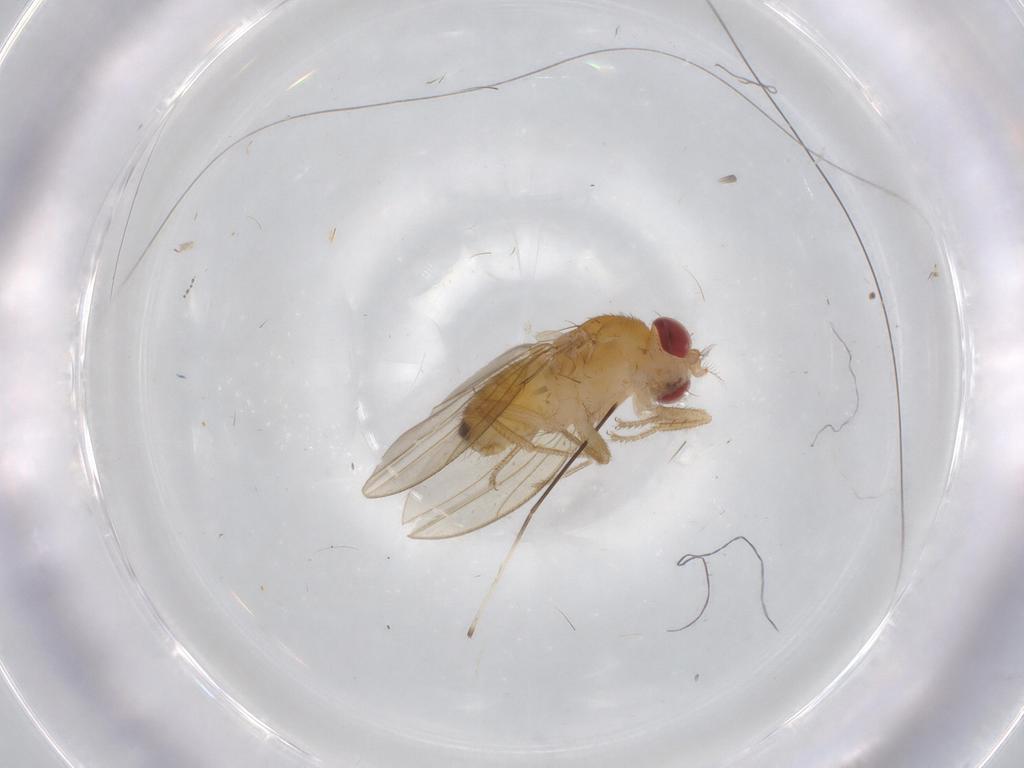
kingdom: Animalia
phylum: Arthropoda
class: Insecta
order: Diptera
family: Drosophilidae
